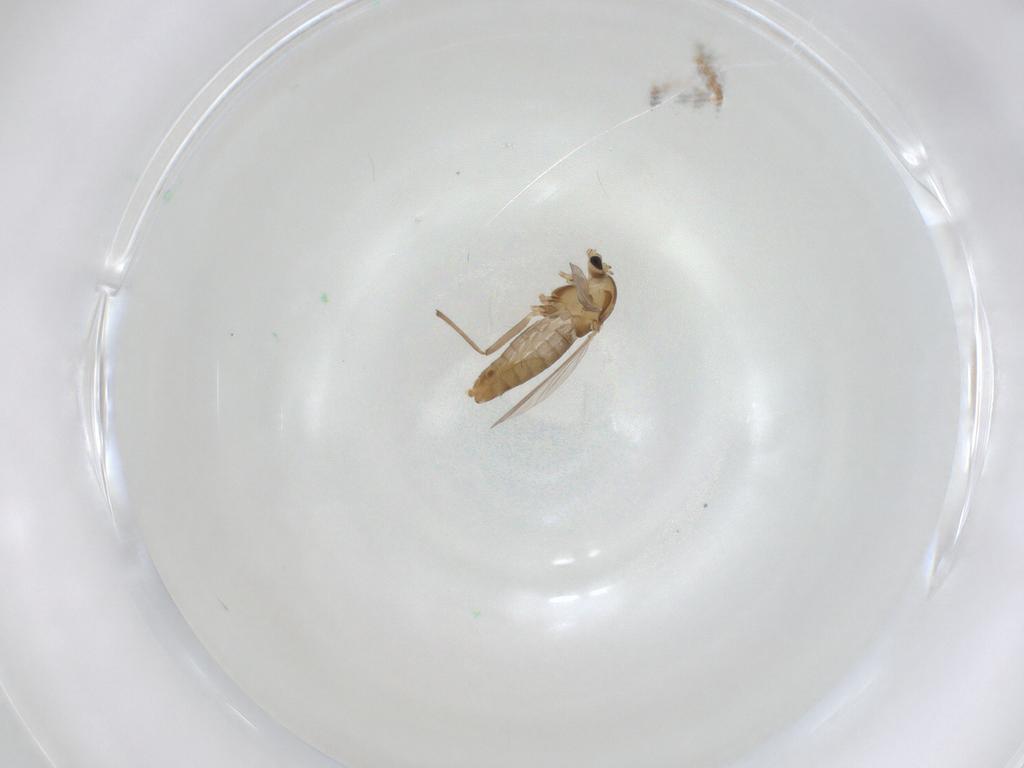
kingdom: Animalia
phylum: Arthropoda
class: Insecta
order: Diptera
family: Chironomidae
